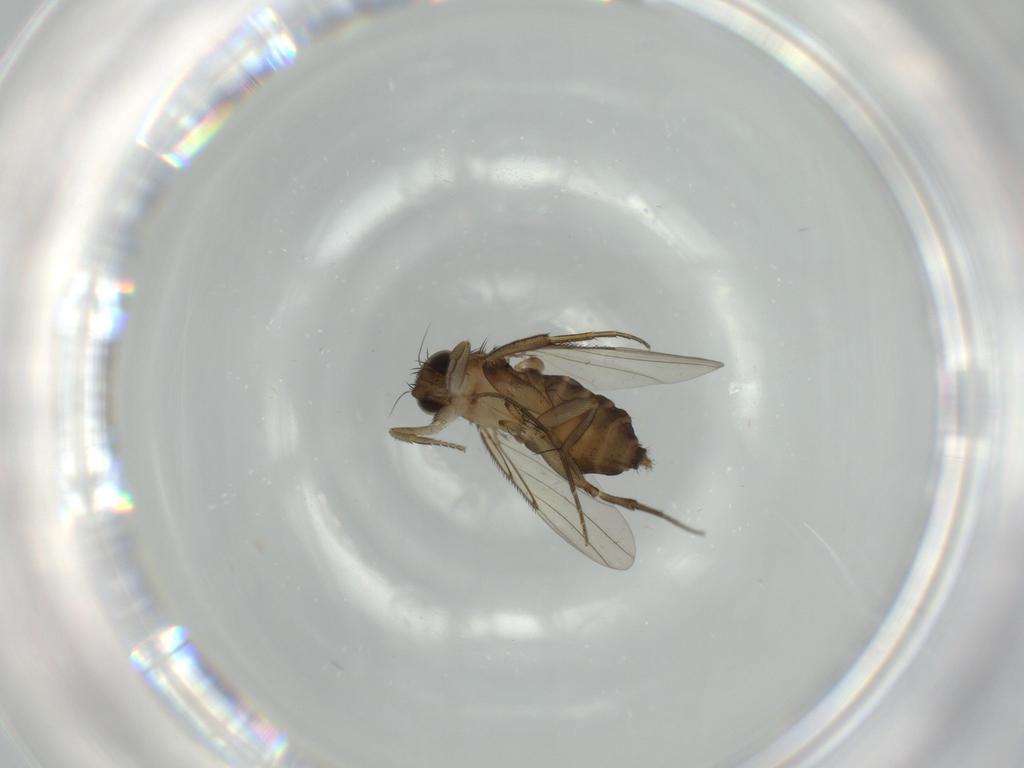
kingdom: Animalia
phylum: Arthropoda
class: Insecta
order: Diptera
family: Phoridae
